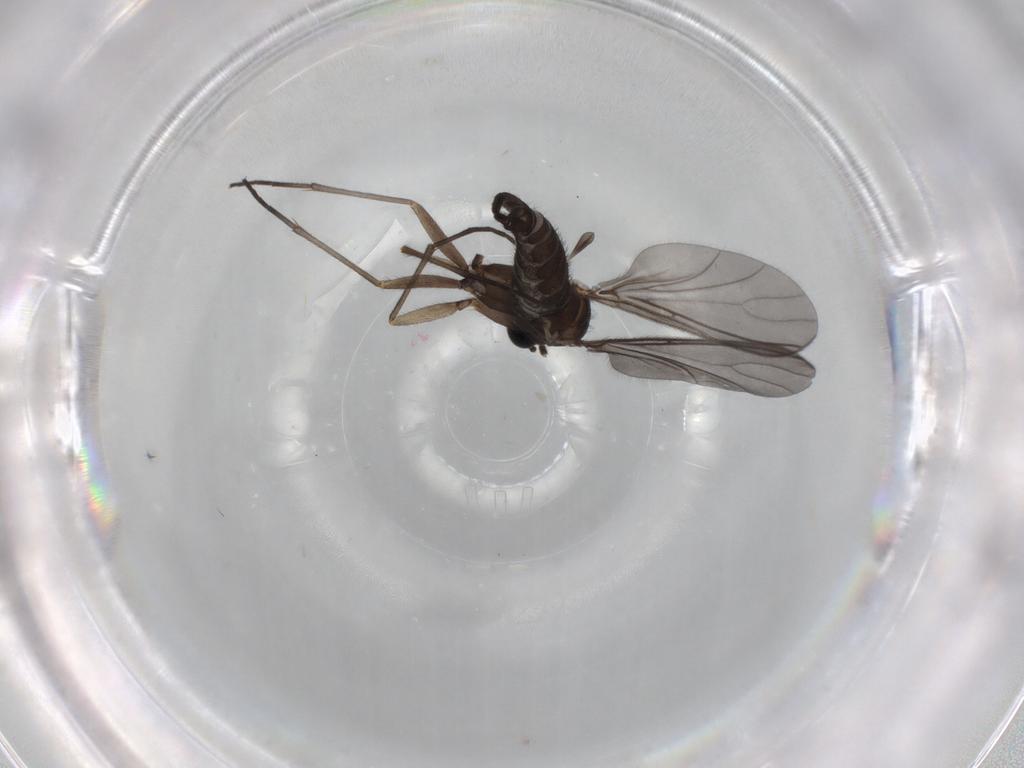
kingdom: Animalia
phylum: Arthropoda
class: Insecta
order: Diptera
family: Sciaridae
